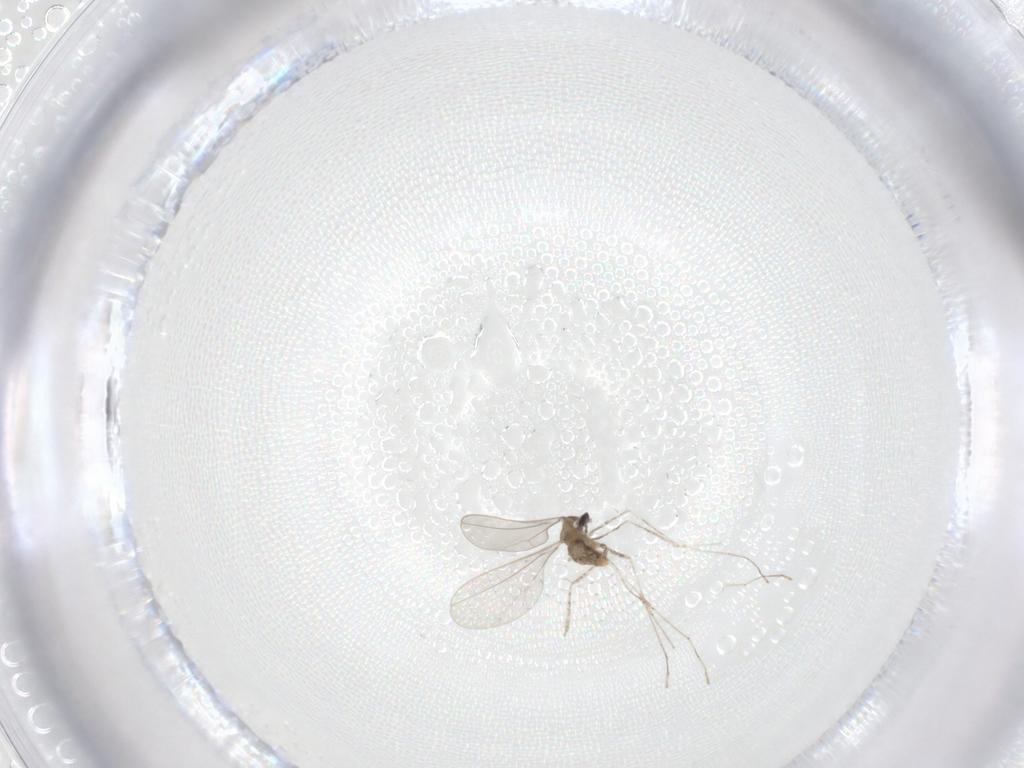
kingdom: Animalia
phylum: Arthropoda
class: Insecta
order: Diptera
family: Cecidomyiidae
